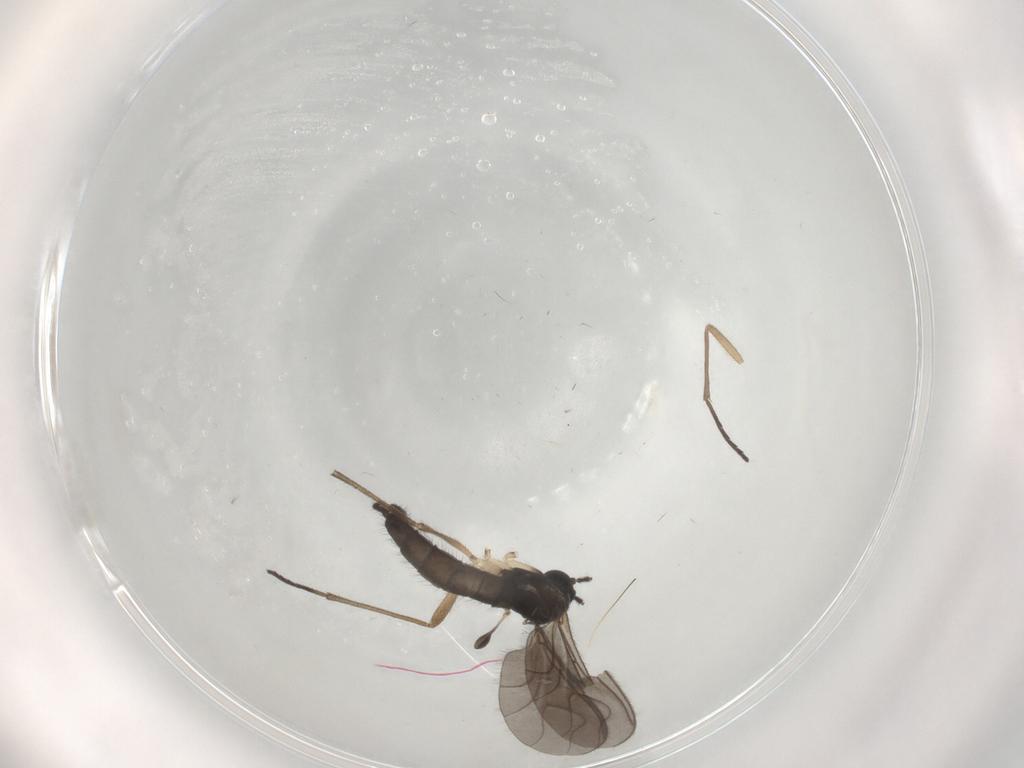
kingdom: Animalia
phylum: Arthropoda
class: Insecta
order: Diptera
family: Sciaridae
